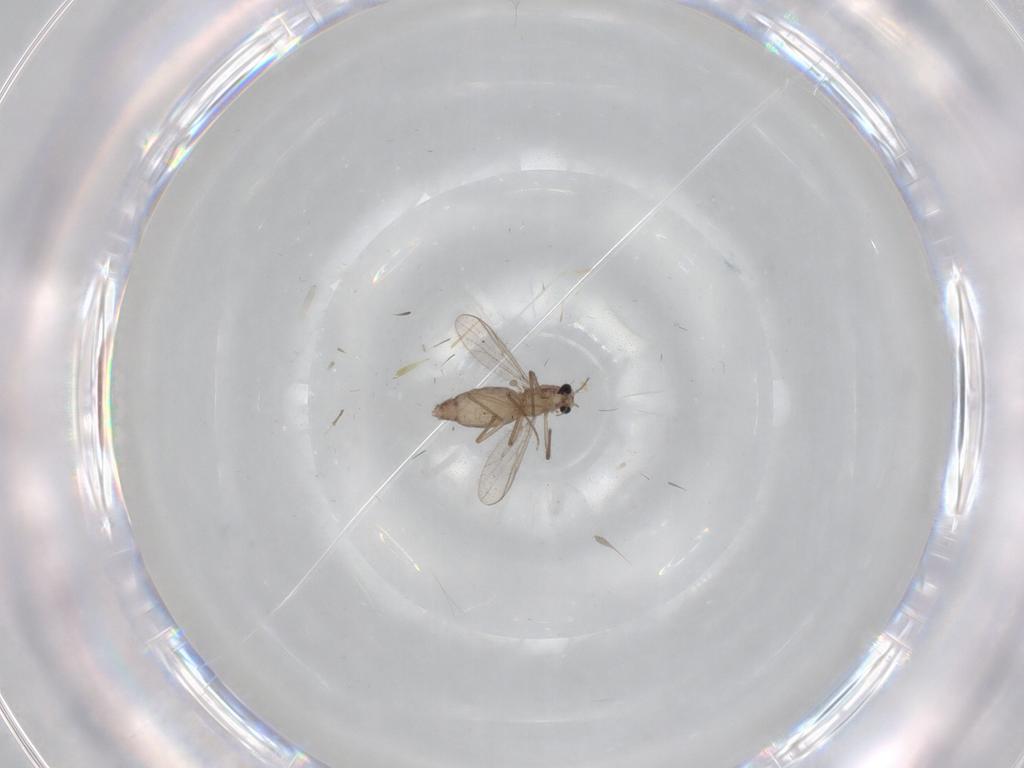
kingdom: Animalia
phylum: Arthropoda
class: Insecta
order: Diptera
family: Chironomidae
